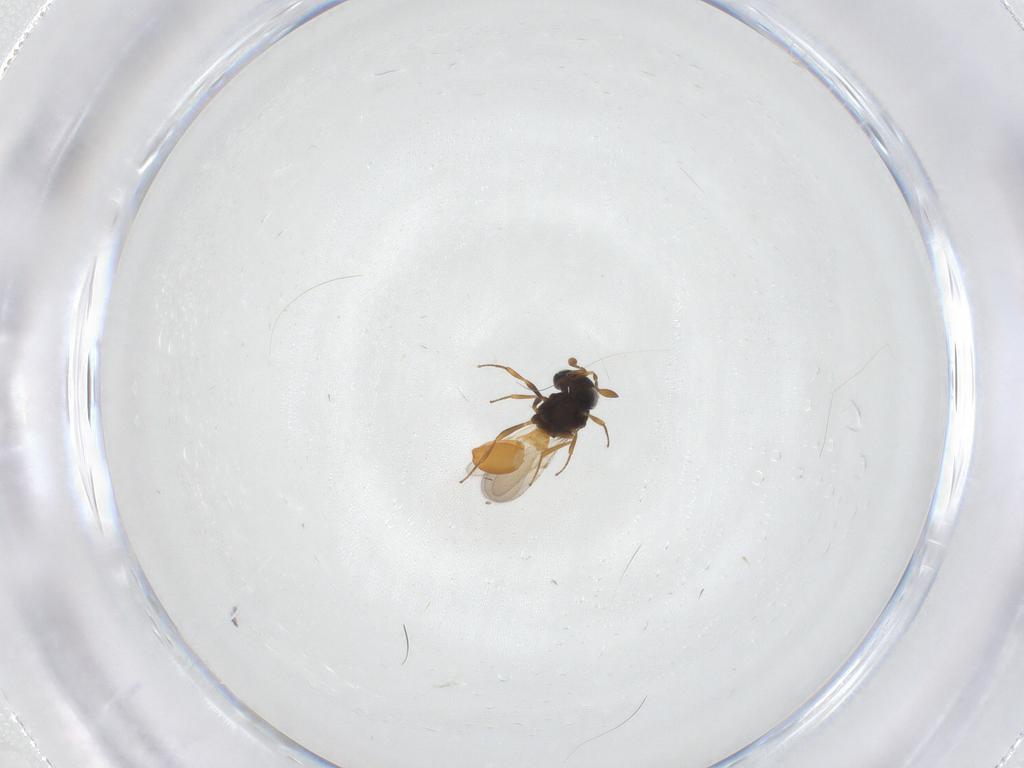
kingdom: Animalia
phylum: Arthropoda
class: Insecta
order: Hymenoptera
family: Scelionidae
